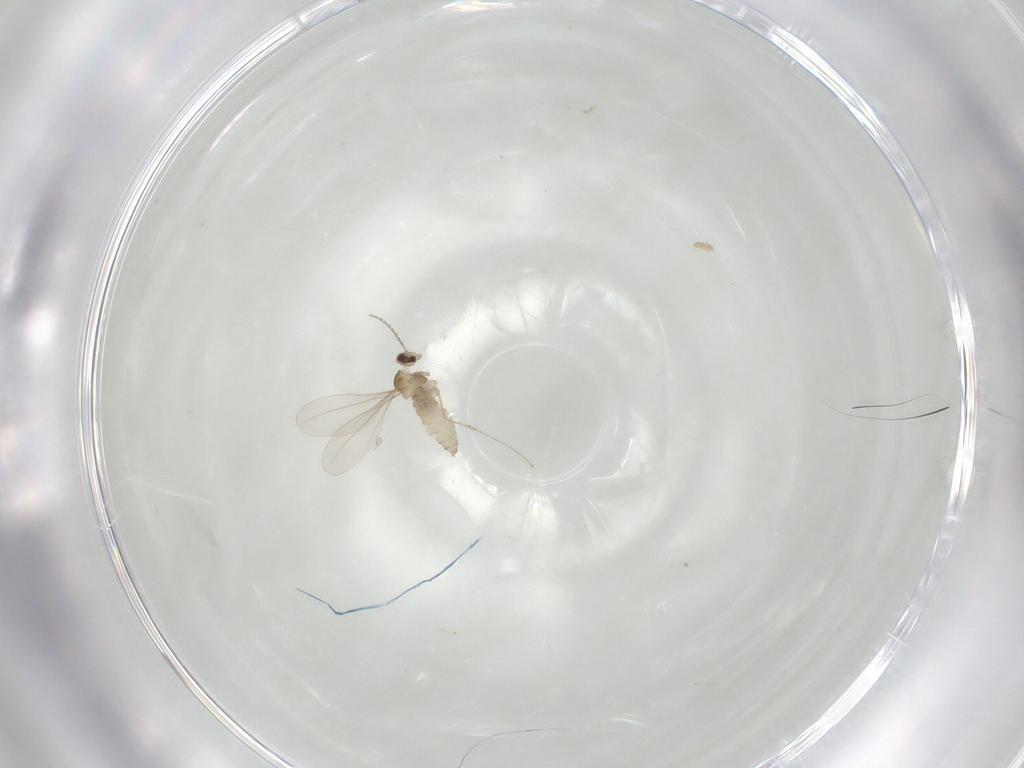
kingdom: Animalia
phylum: Arthropoda
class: Insecta
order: Diptera
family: Cecidomyiidae
